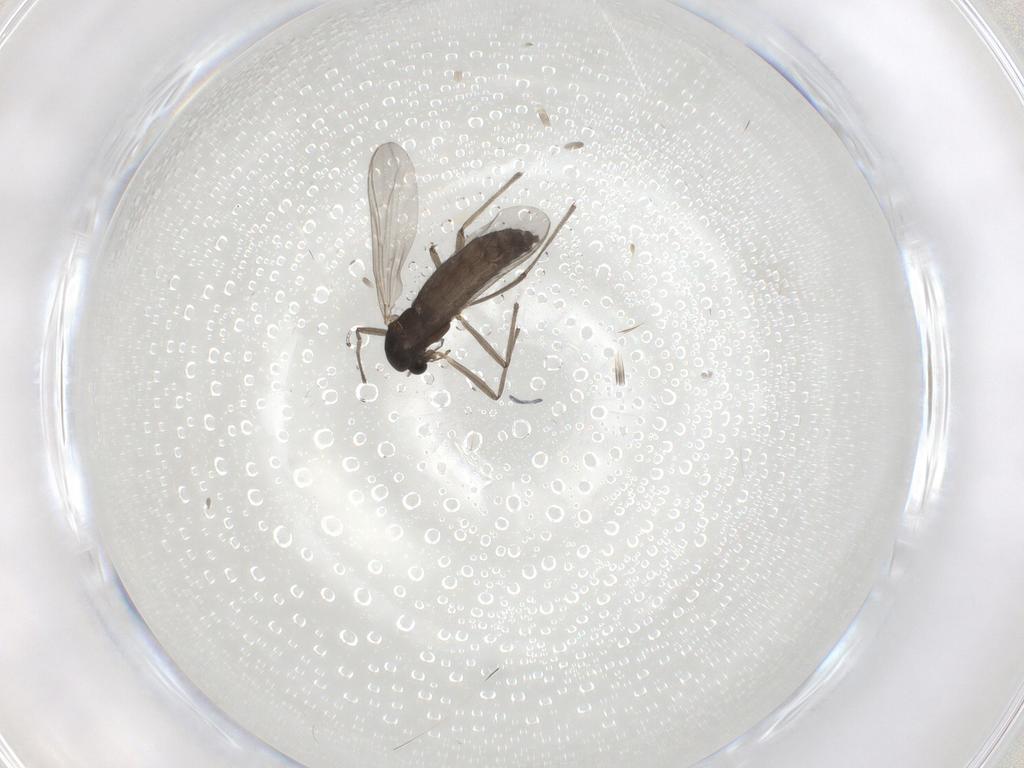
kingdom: Animalia
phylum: Arthropoda
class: Insecta
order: Diptera
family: Chironomidae
